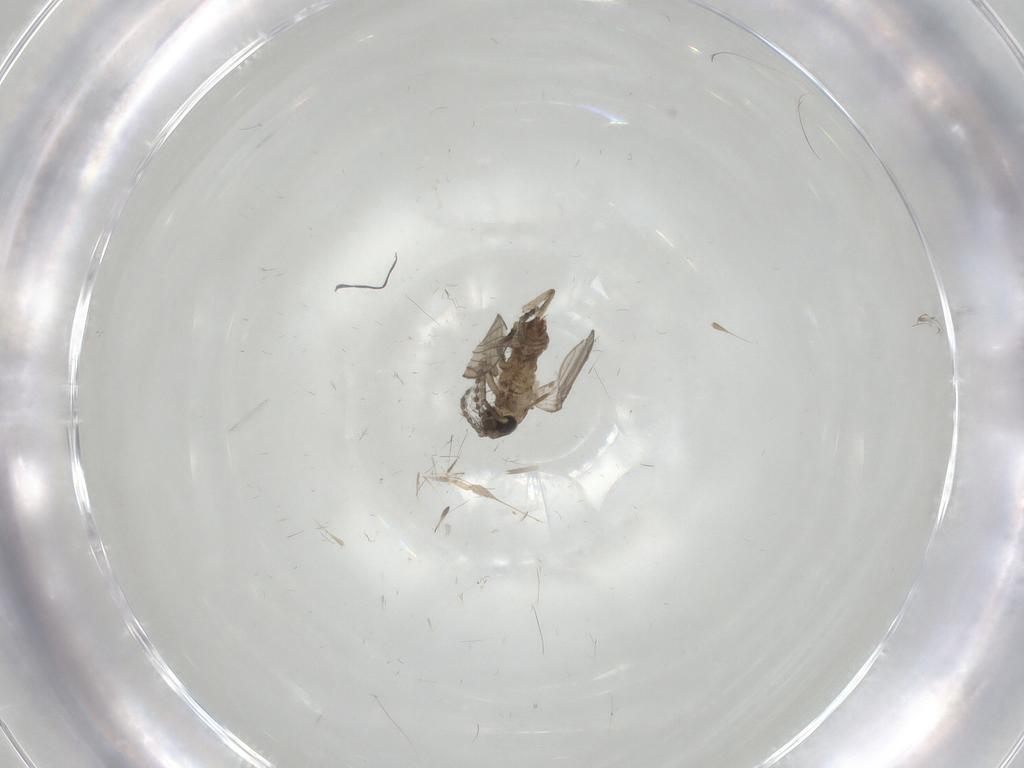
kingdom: Animalia
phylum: Arthropoda
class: Insecta
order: Diptera
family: Psychodidae
